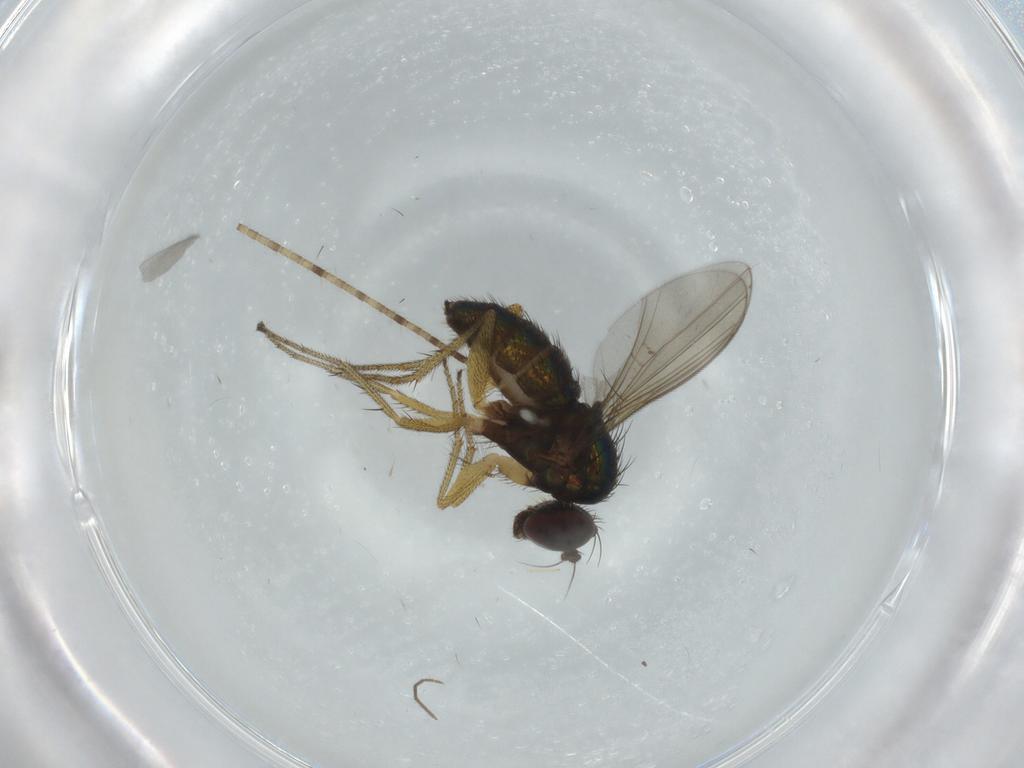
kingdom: Animalia
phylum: Arthropoda
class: Insecta
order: Diptera
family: Dolichopodidae
